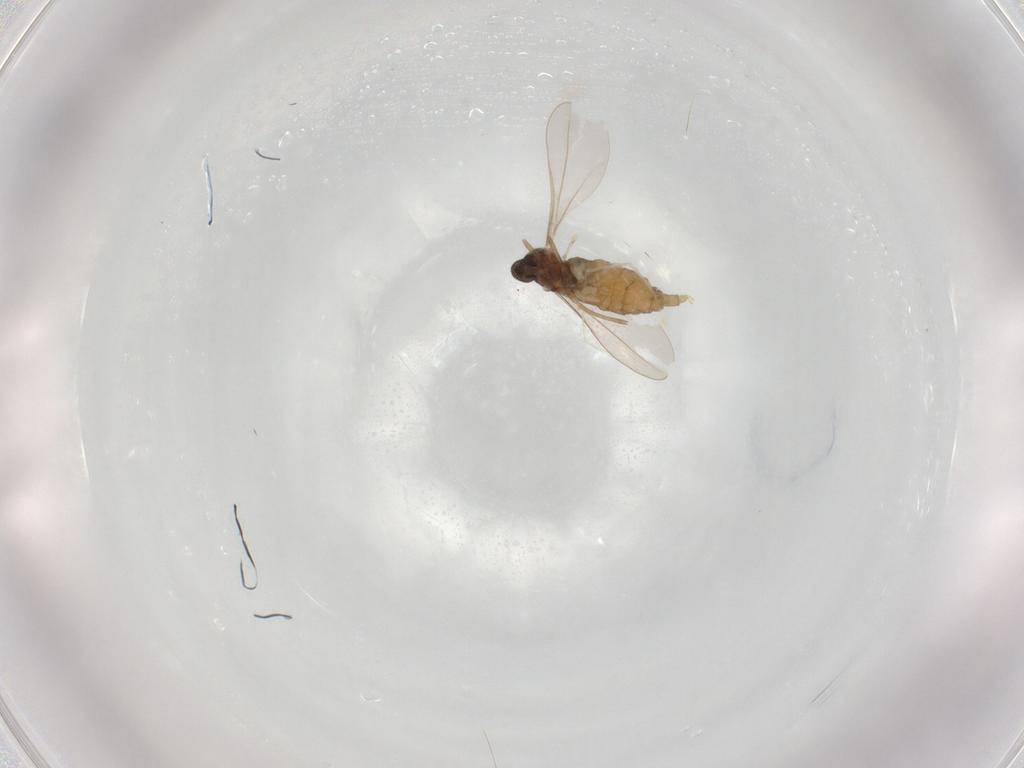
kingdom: Animalia
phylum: Arthropoda
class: Insecta
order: Diptera
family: Cecidomyiidae
